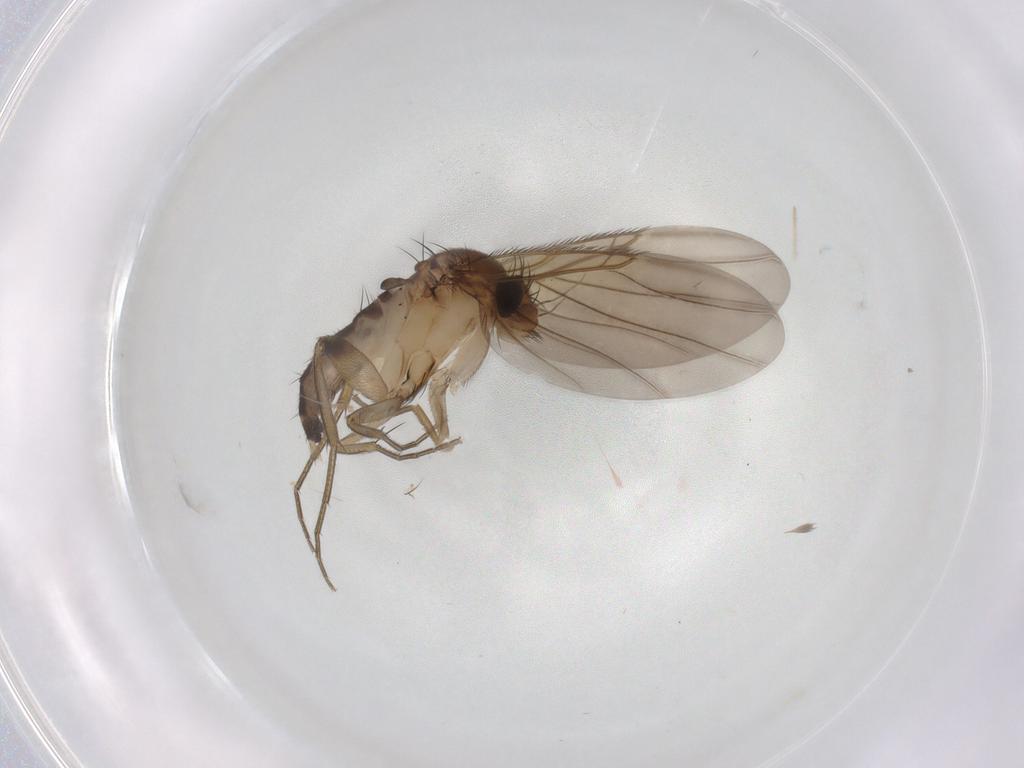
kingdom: Animalia
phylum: Arthropoda
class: Insecta
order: Diptera
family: Phoridae
